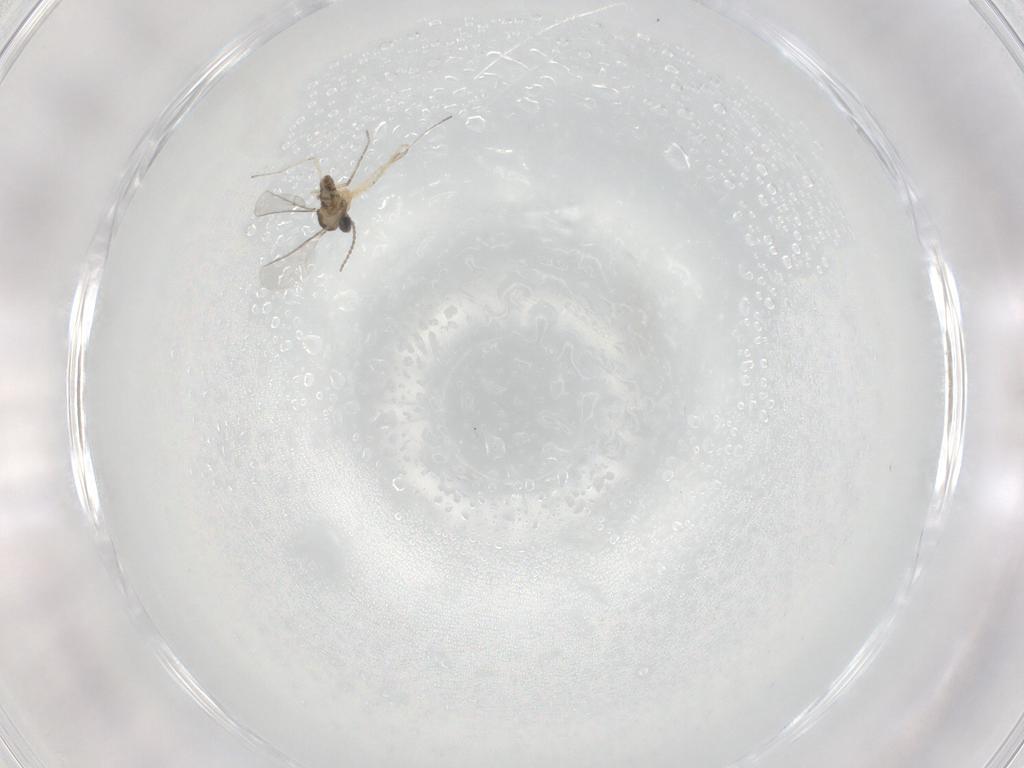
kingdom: Animalia
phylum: Arthropoda
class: Insecta
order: Diptera
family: Cecidomyiidae
